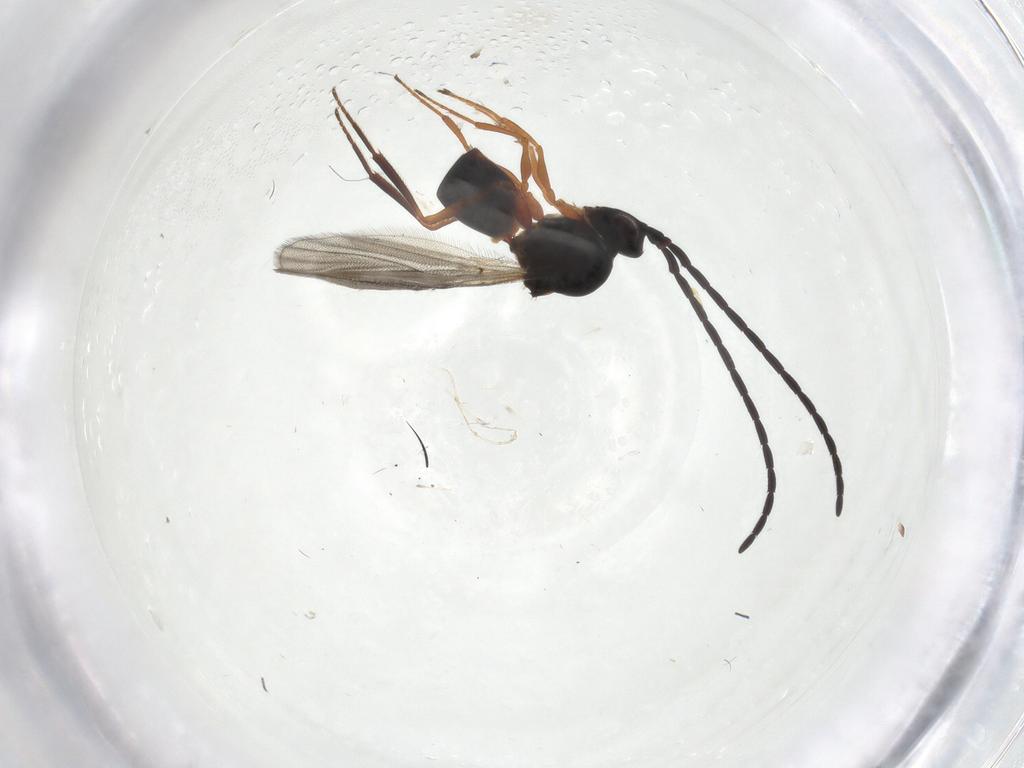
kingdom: Animalia
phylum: Arthropoda
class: Insecta
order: Hymenoptera
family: Figitidae
